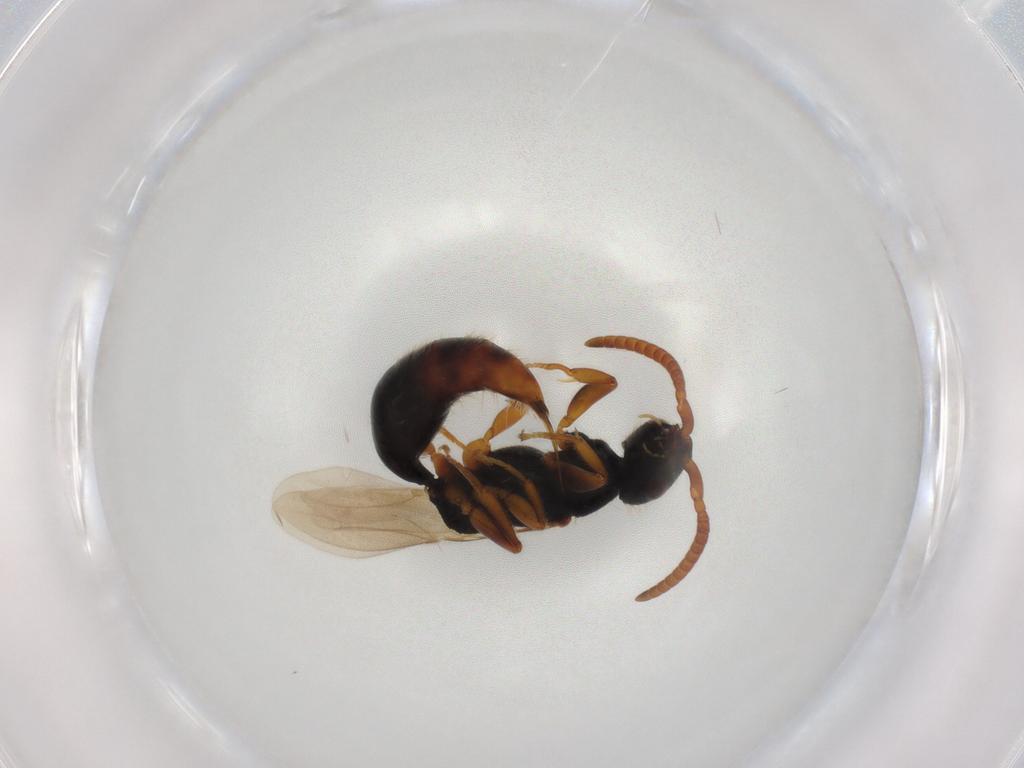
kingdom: Animalia
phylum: Arthropoda
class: Insecta
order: Hymenoptera
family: Bethylidae
